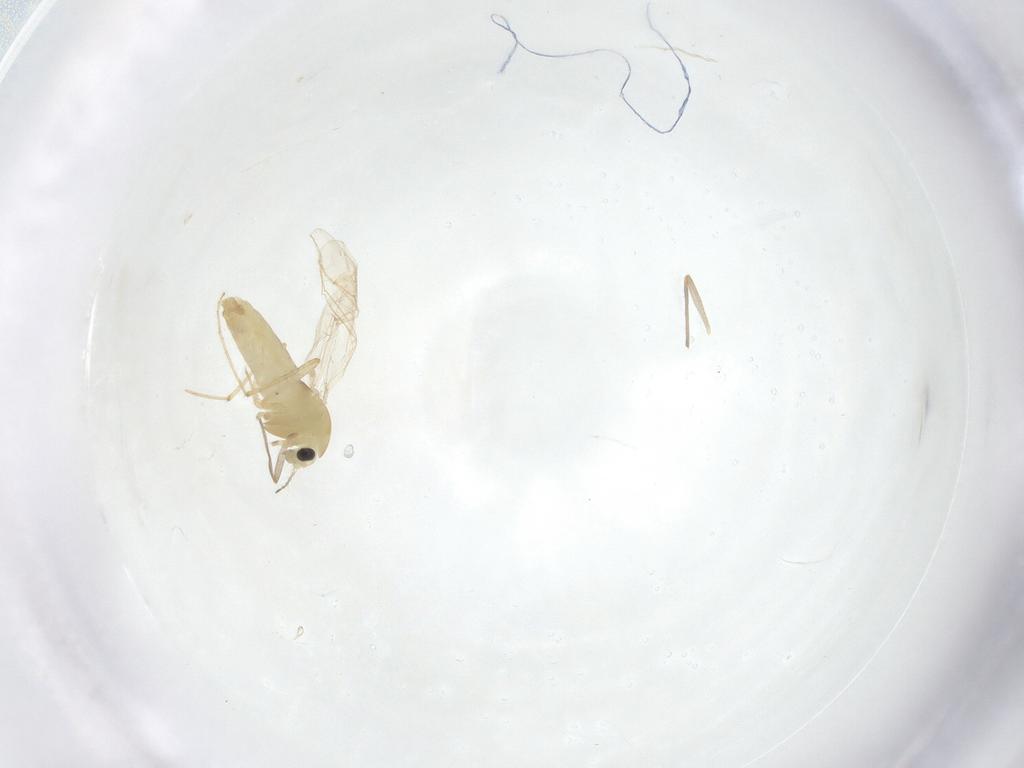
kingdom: Animalia
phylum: Arthropoda
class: Insecta
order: Diptera
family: Chironomidae
